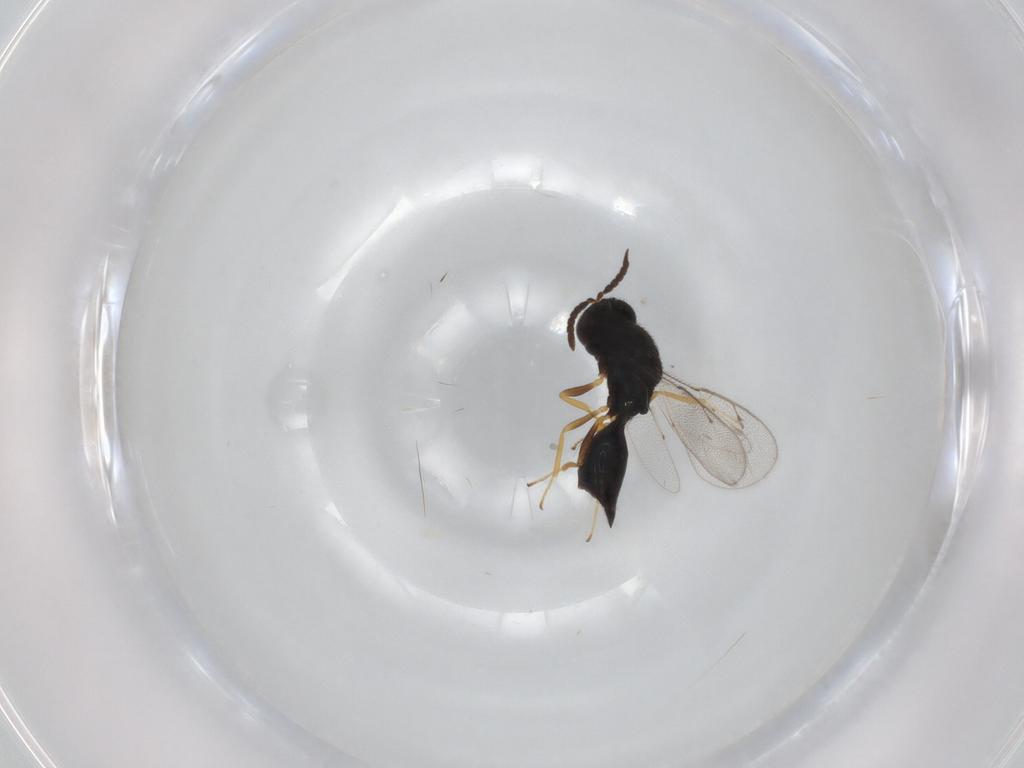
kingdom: Animalia
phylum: Arthropoda
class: Insecta
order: Hymenoptera
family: Pteromalidae
